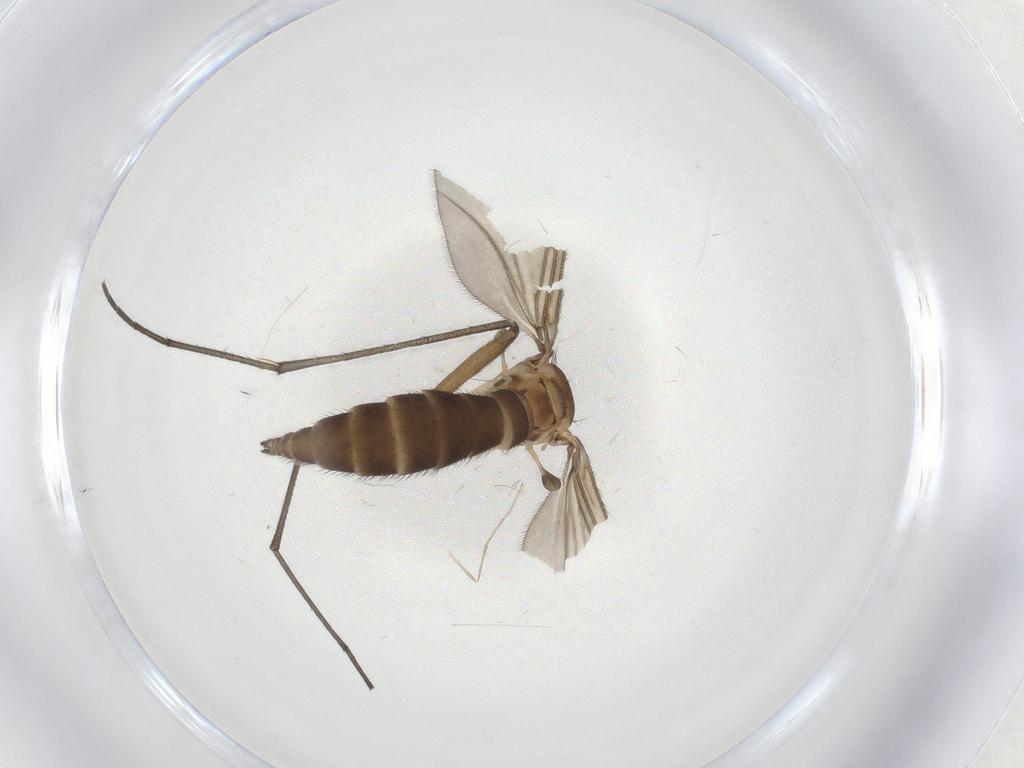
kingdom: Animalia
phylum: Arthropoda
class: Insecta
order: Diptera
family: Sciaridae
